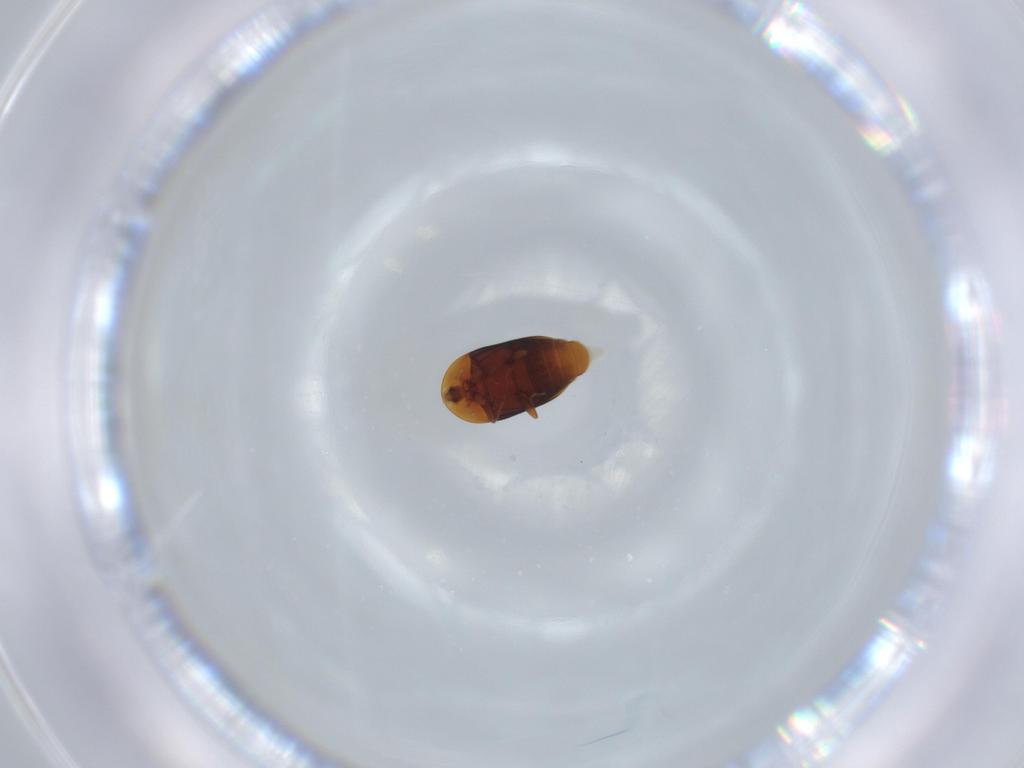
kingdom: Animalia
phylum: Arthropoda
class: Insecta
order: Coleoptera
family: Corylophidae
